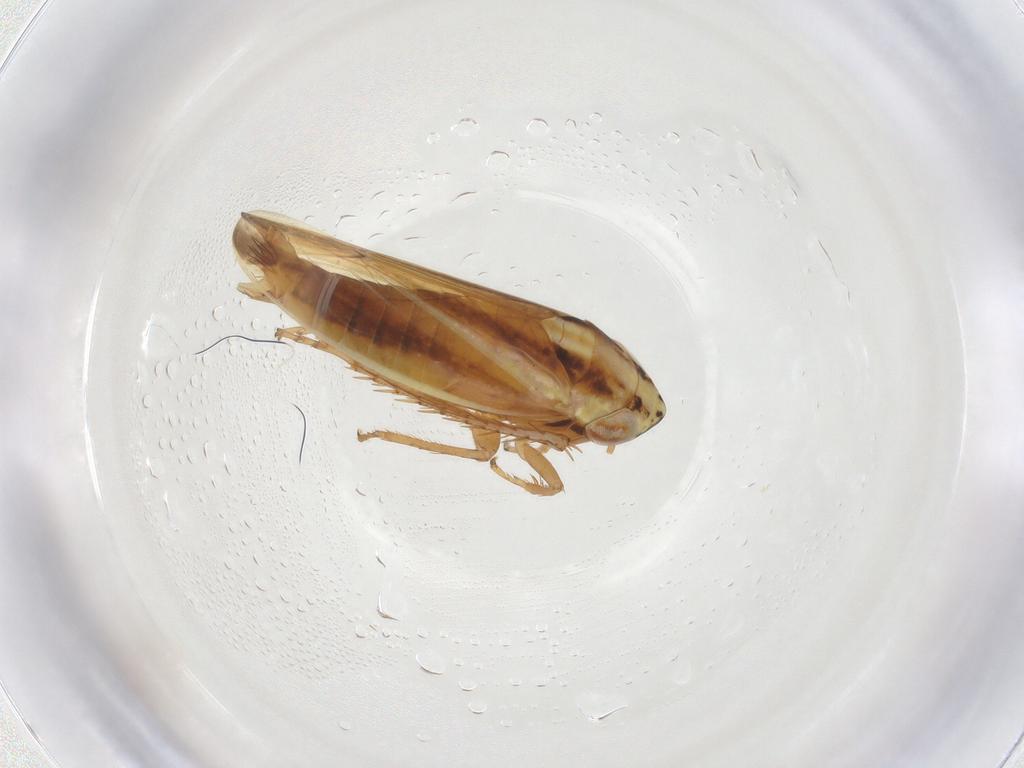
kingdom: Animalia
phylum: Arthropoda
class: Insecta
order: Hemiptera
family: Cicadellidae
